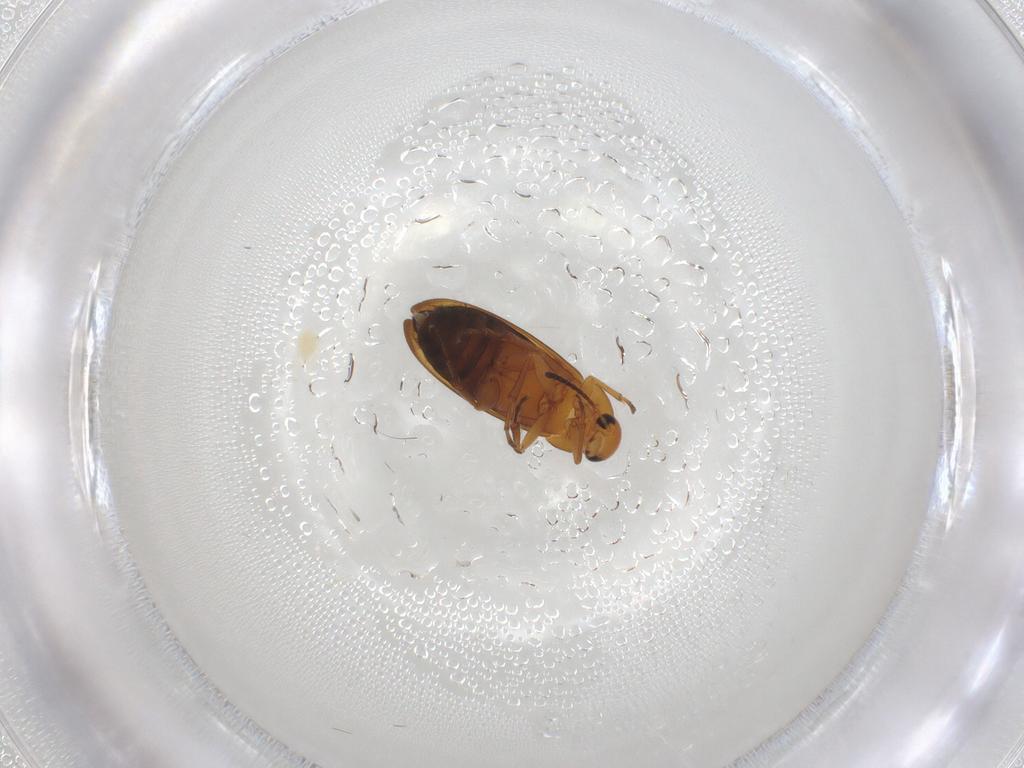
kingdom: Animalia
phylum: Arthropoda
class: Insecta
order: Coleoptera
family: Scraptiidae
